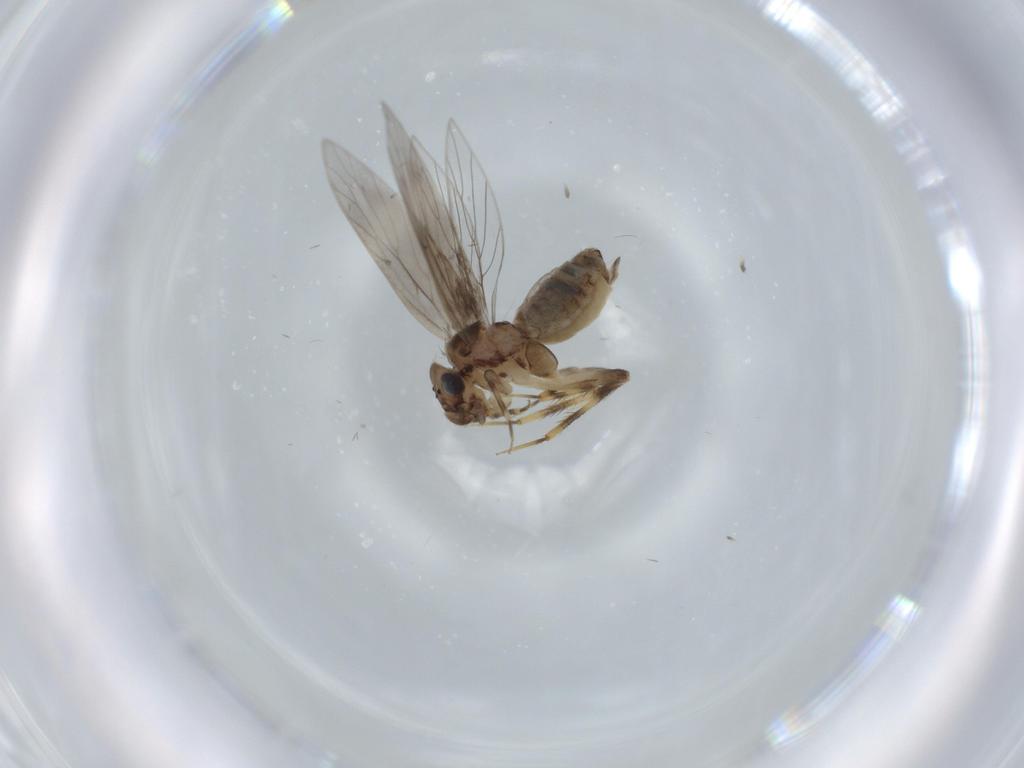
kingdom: Animalia
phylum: Arthropoda
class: Insecta
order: Psocodea
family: Lepidopsocidae
